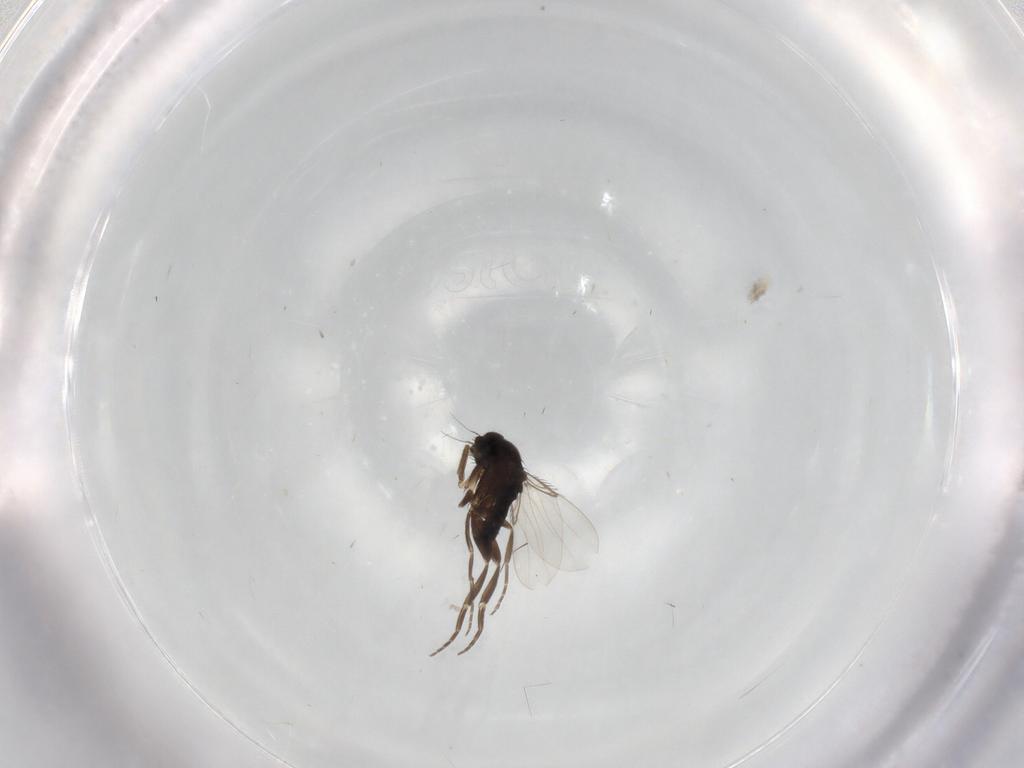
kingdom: Animalia
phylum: Arthropoda
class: Insecta
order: Diptera
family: Phoridae
